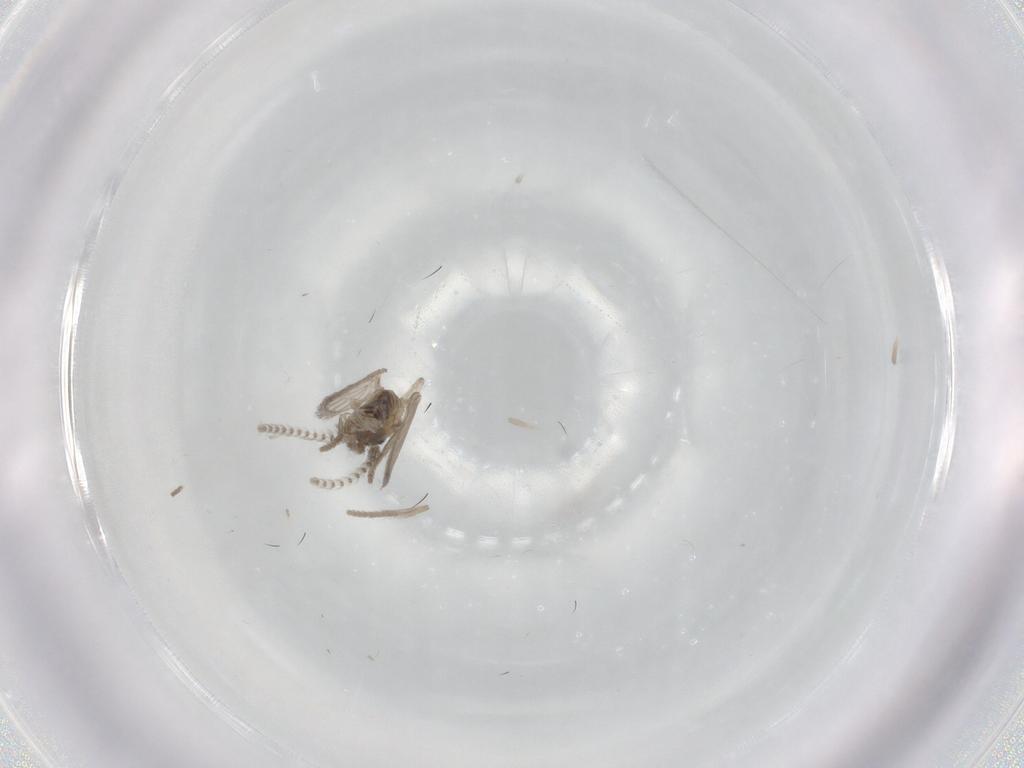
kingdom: Animalia
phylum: Arthropoda
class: Insecta
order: Diptera
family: Psychodidae
